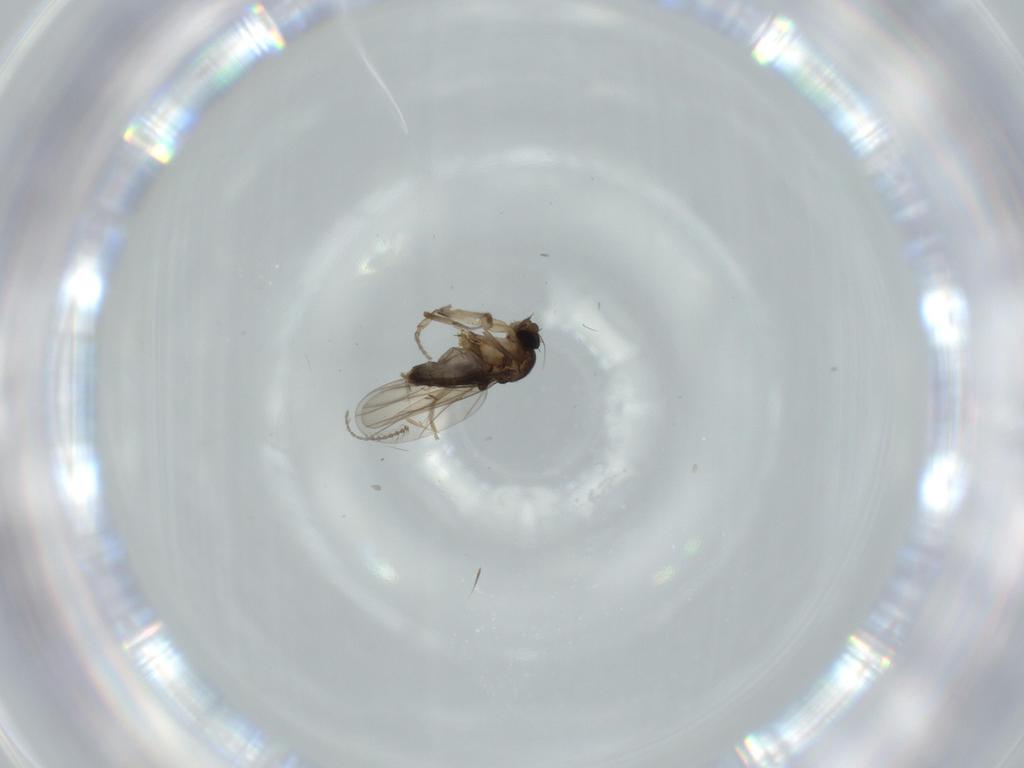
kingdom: Animalia
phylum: Arthropoda
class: Insecta
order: Diptera
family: Phoridae
